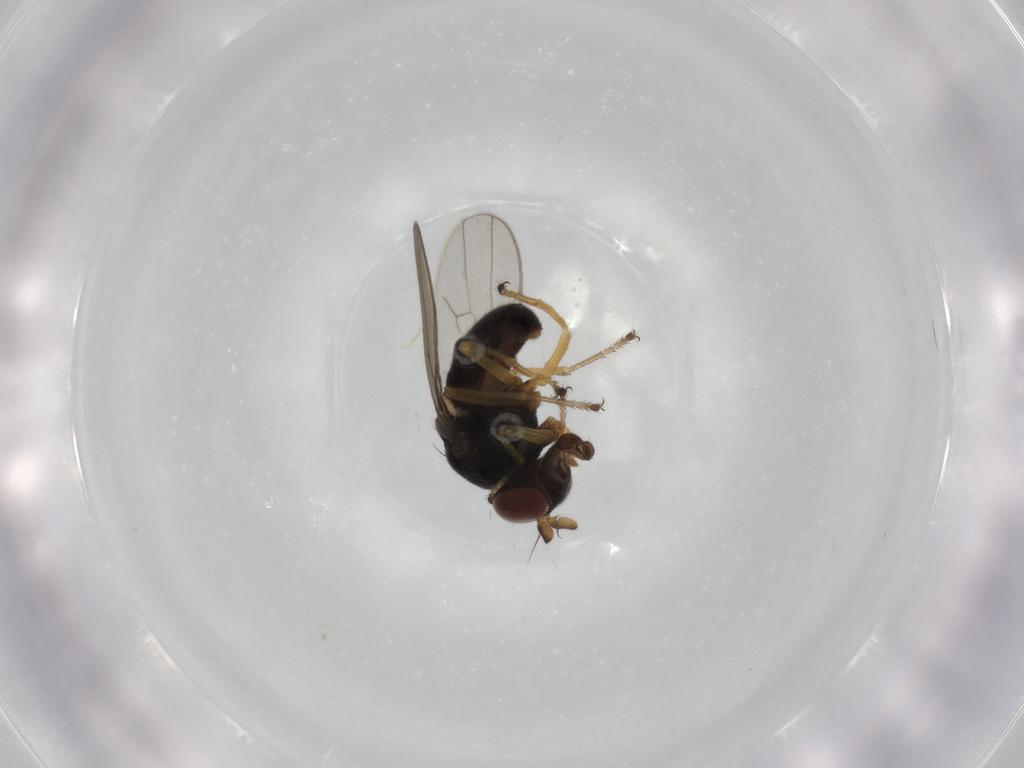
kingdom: Animalia
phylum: Arthropoda
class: Insecta
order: Diptera
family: Ephydridae
